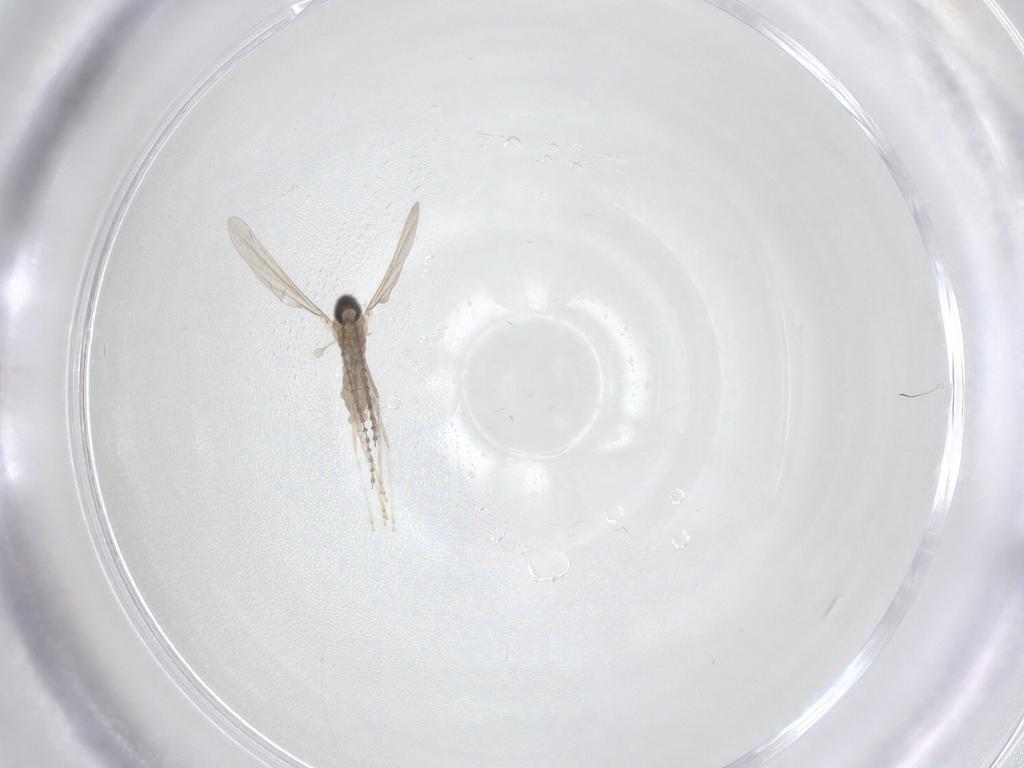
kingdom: Animalia
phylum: Arthropoda
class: Insecta
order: Diptera
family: Cecidomyiidae
